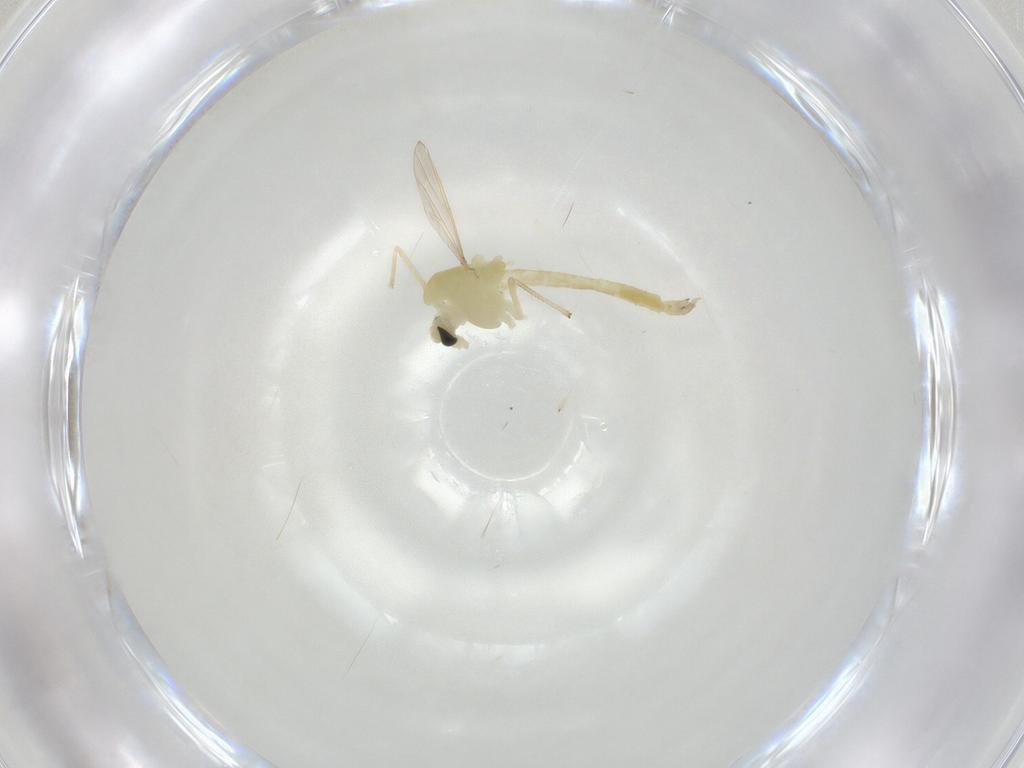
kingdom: Animalia
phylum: Arthropoda
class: Insecta
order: Diptera
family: Chironomidae
